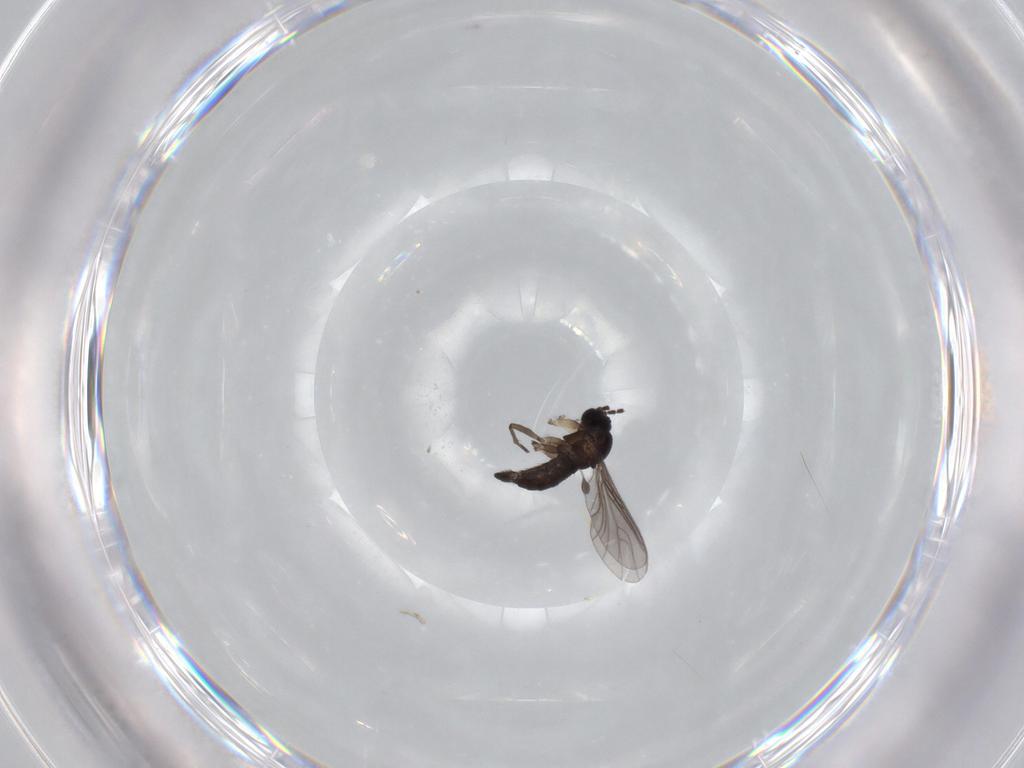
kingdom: Animalia
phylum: Arthropoda
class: Insecta
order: Diptera
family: Sciaridae
